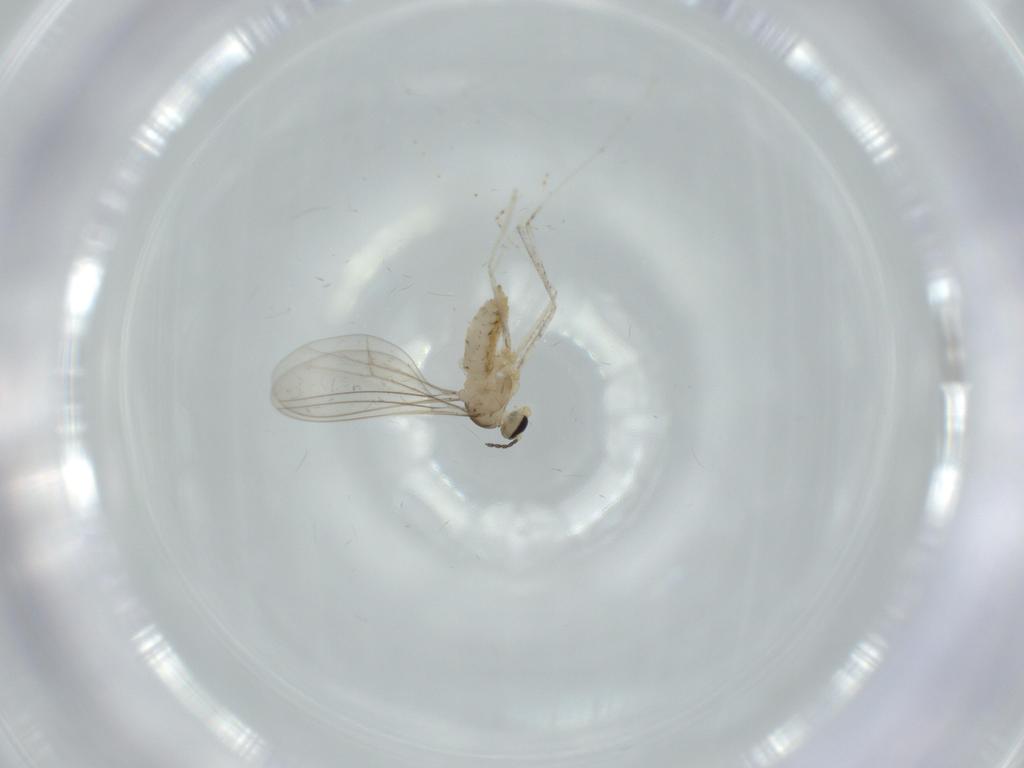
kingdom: Animalia
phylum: Arthropoda
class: Insecta
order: Diptera
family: Cecidomyiidae
